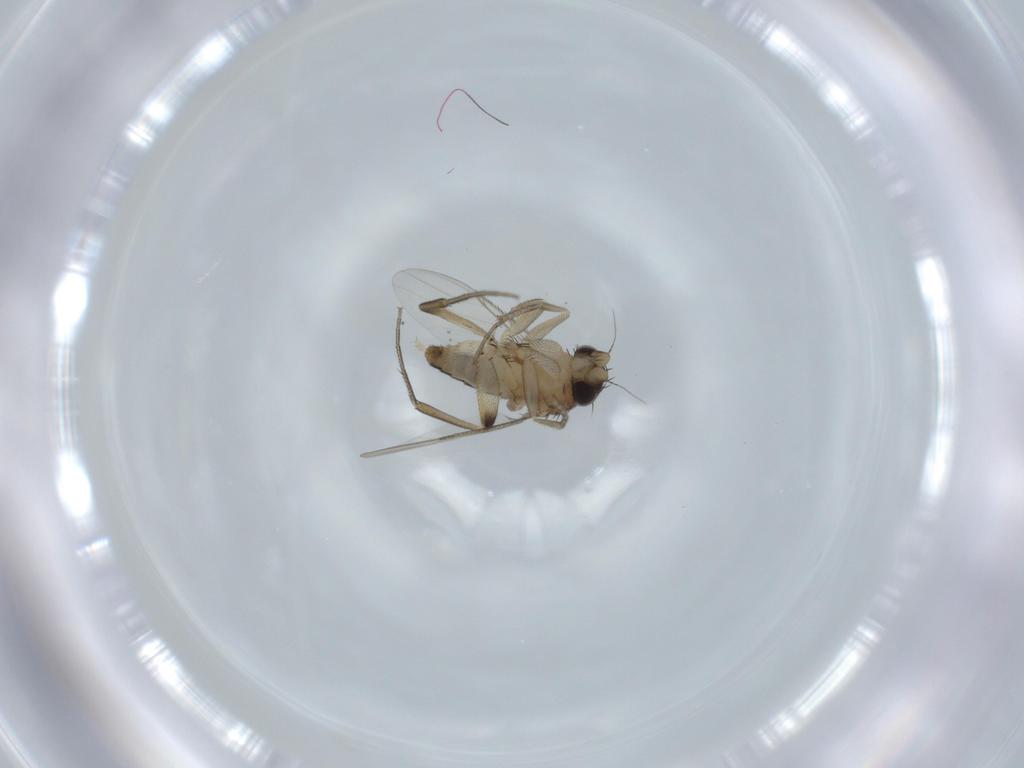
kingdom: Animalia
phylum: Arthropoda
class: Insecta
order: Diptera
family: Phoridae
